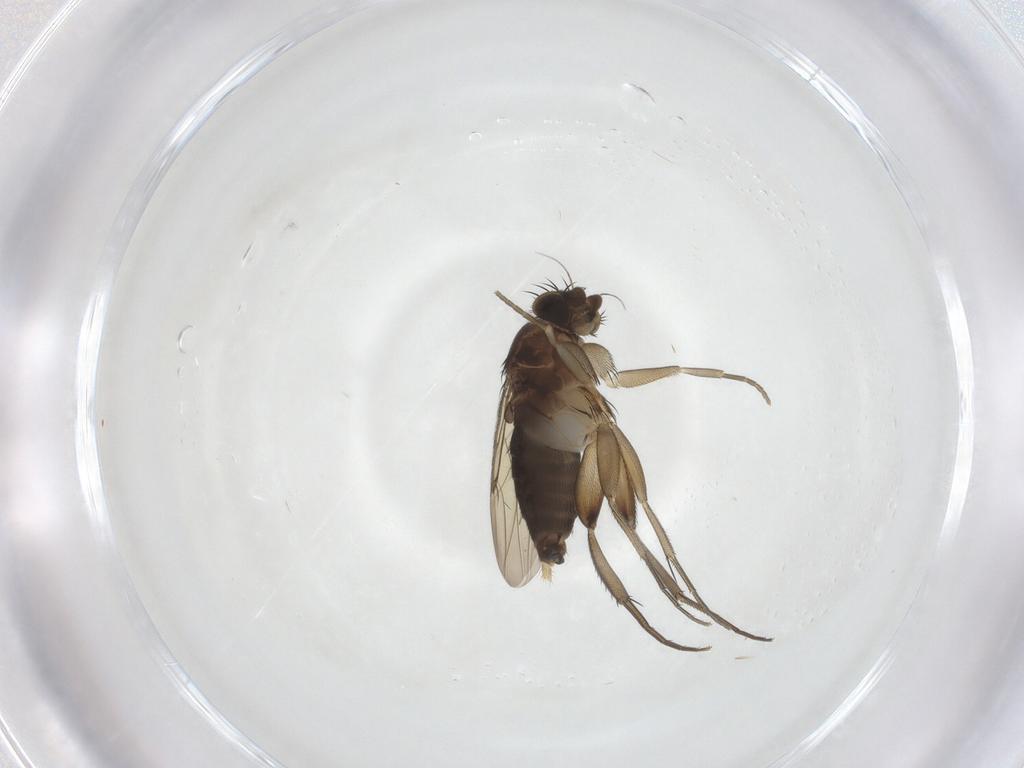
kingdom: Animalia
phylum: Arthropoda
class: Insecta
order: Diptera
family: Phoridae
